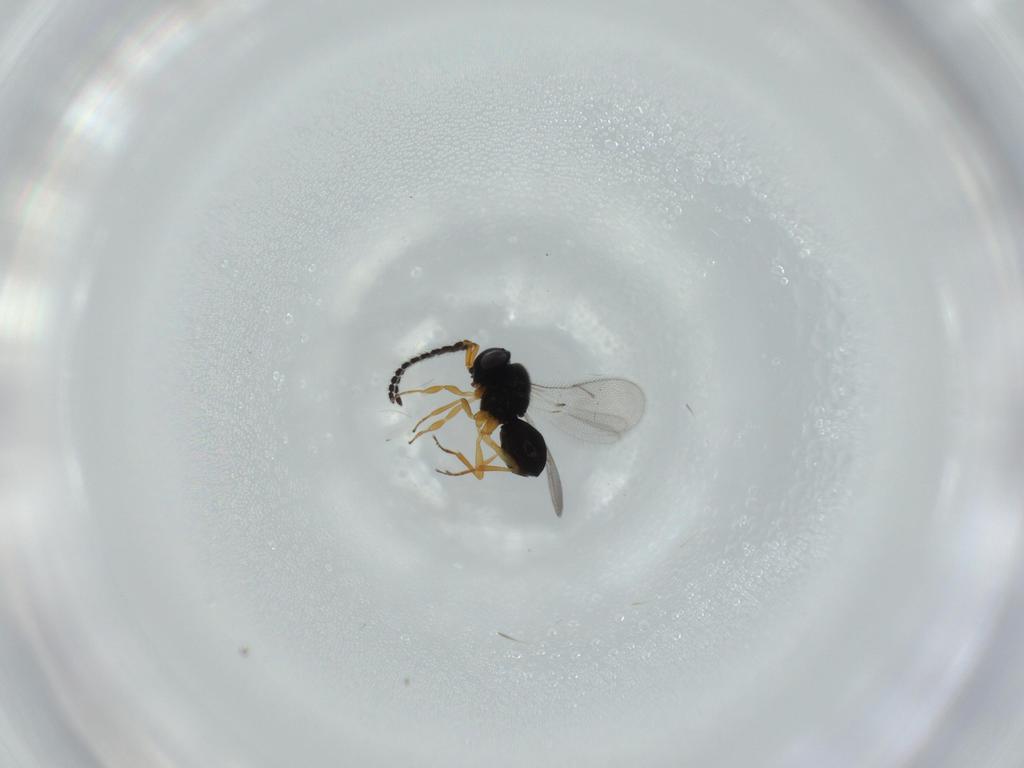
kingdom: Animalia
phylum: Arthropoda
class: Insecta
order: Hymenoptera
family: Scelionidae
